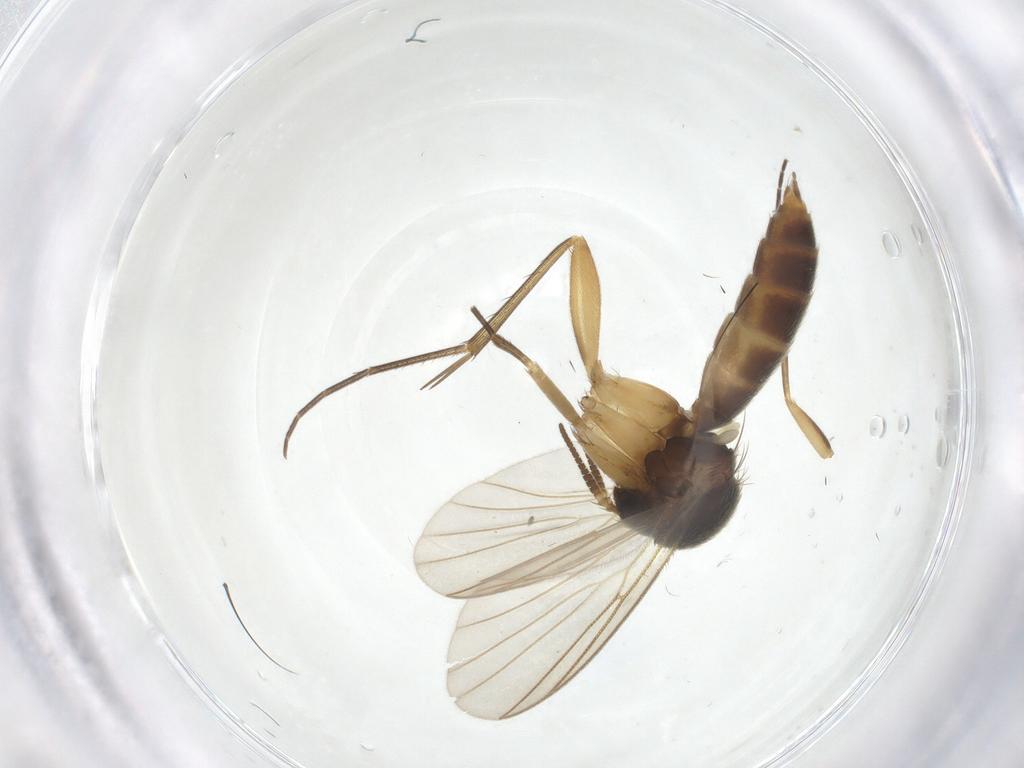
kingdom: Animalia
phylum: Arthropoda
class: Insecta
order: Diptera
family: Mycetophilidae
